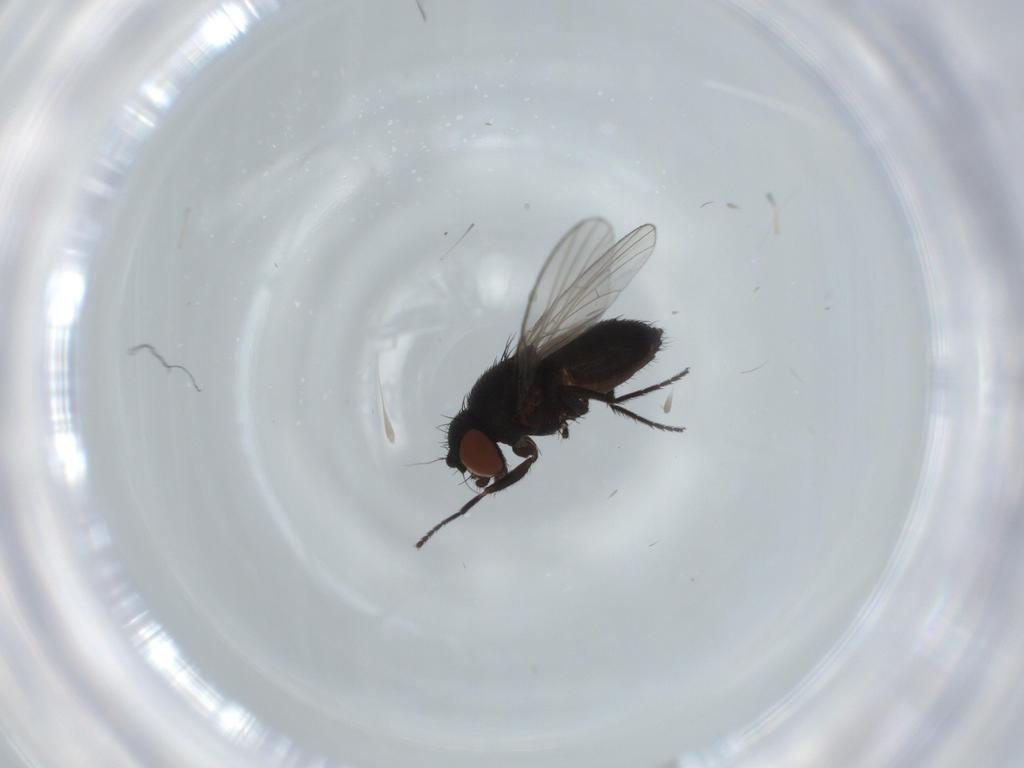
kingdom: Animalia
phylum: Arthropoda
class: Insecta
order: Diptera
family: Milichiidae
